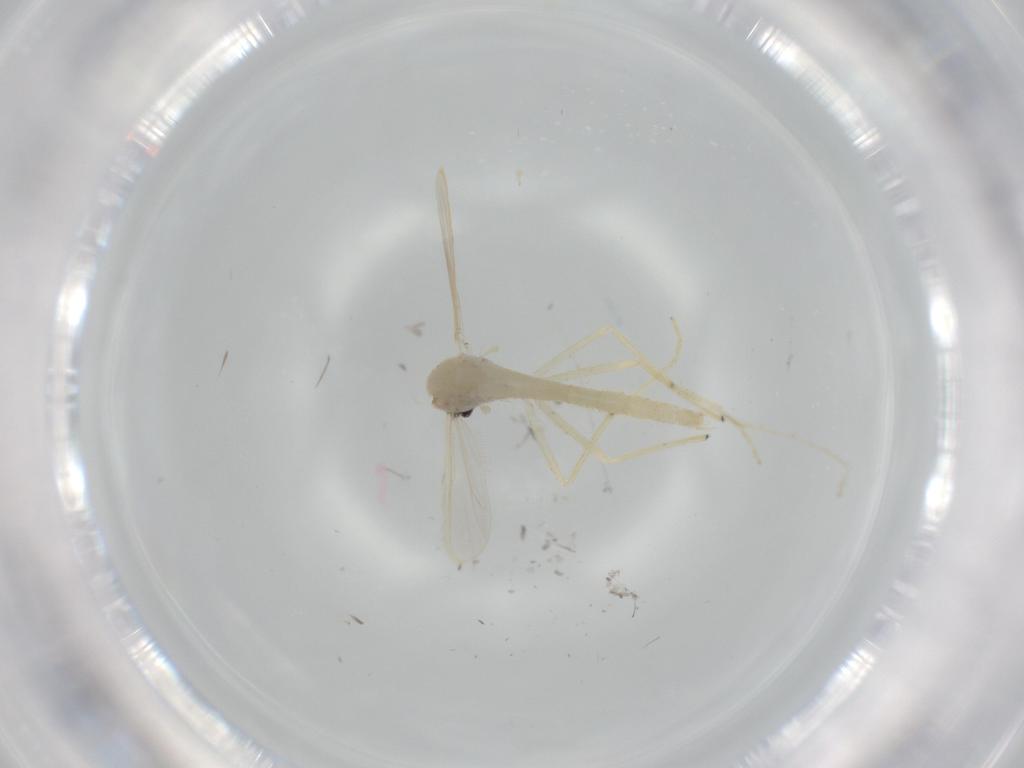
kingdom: Animalia
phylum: Arthropoda
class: Insecta
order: Diptera
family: Chironomidae
